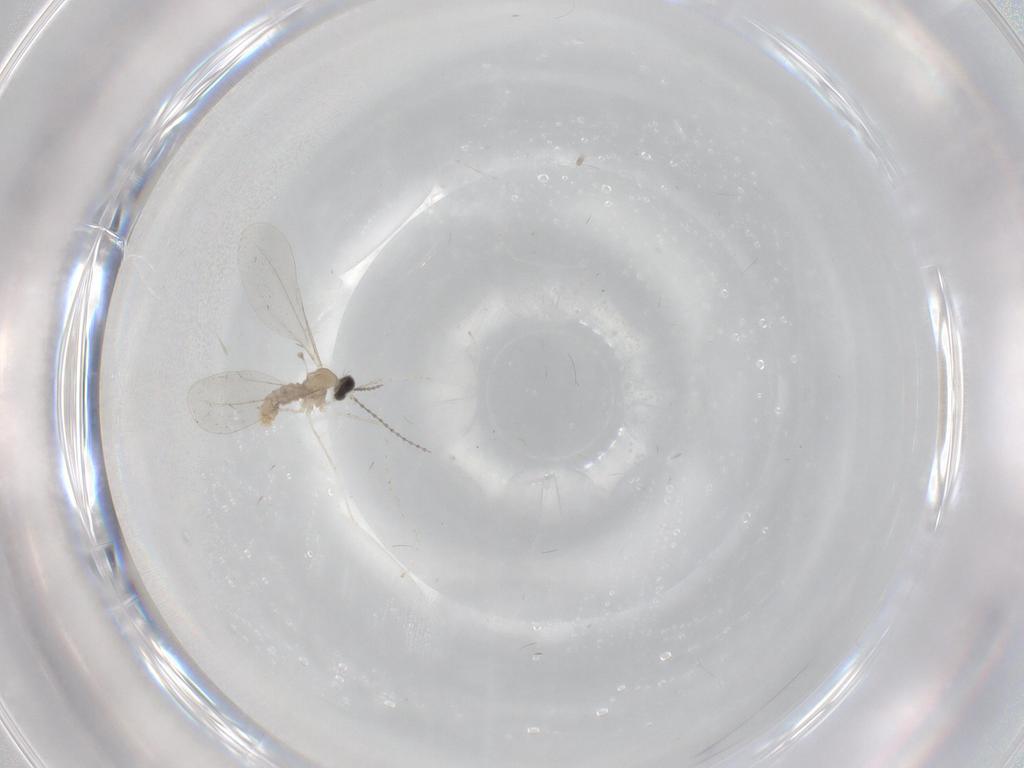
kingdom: Animalia
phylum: Arthropoda
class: Insecta
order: Diptera
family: Cecidomyiidae
